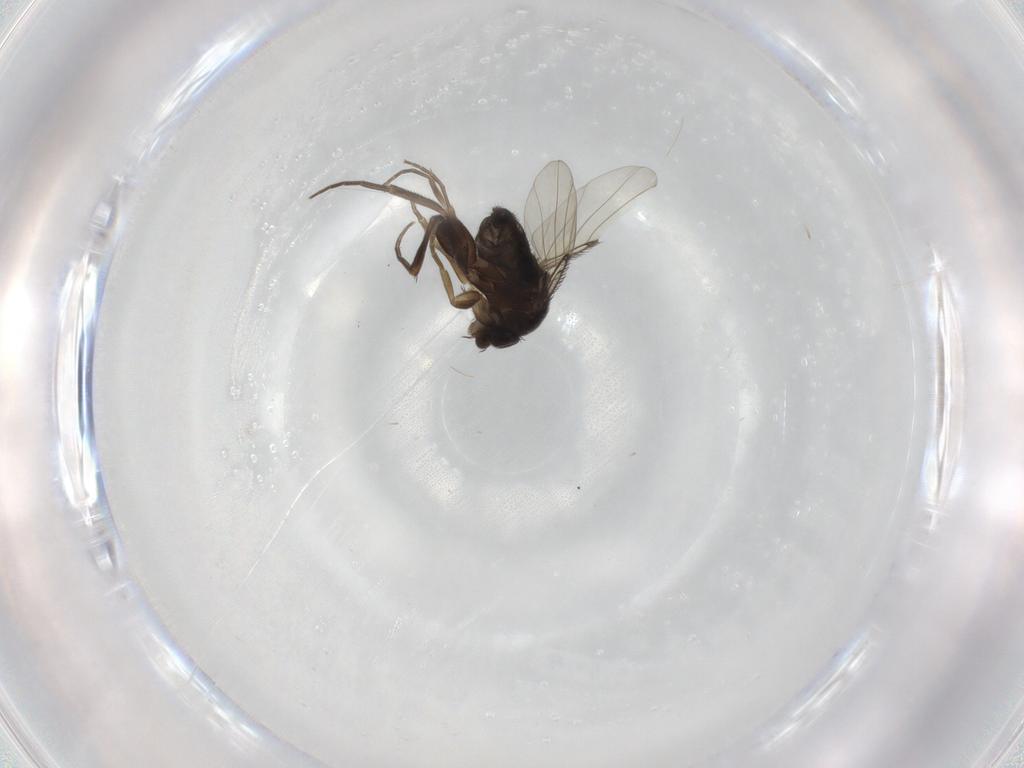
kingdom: Animalia
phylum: Arthropoda
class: Insecta
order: Diptera
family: Phoridae
